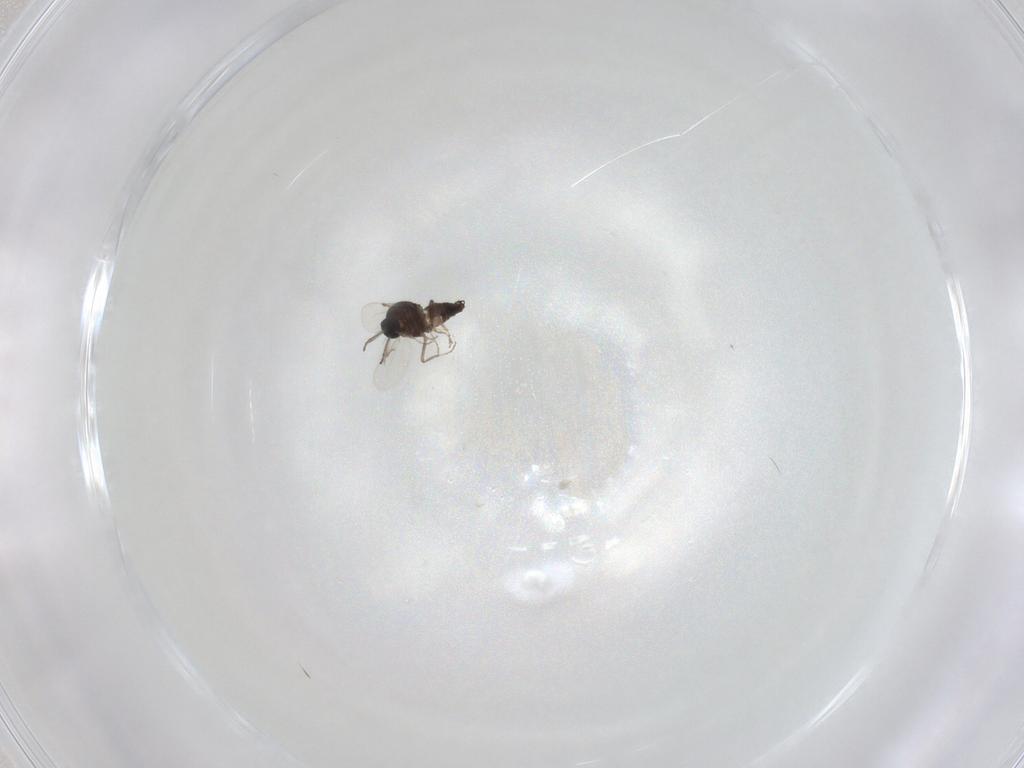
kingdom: Animalia
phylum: Arthropoda
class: Insecta
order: Diptera
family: Ceratopogonidae
